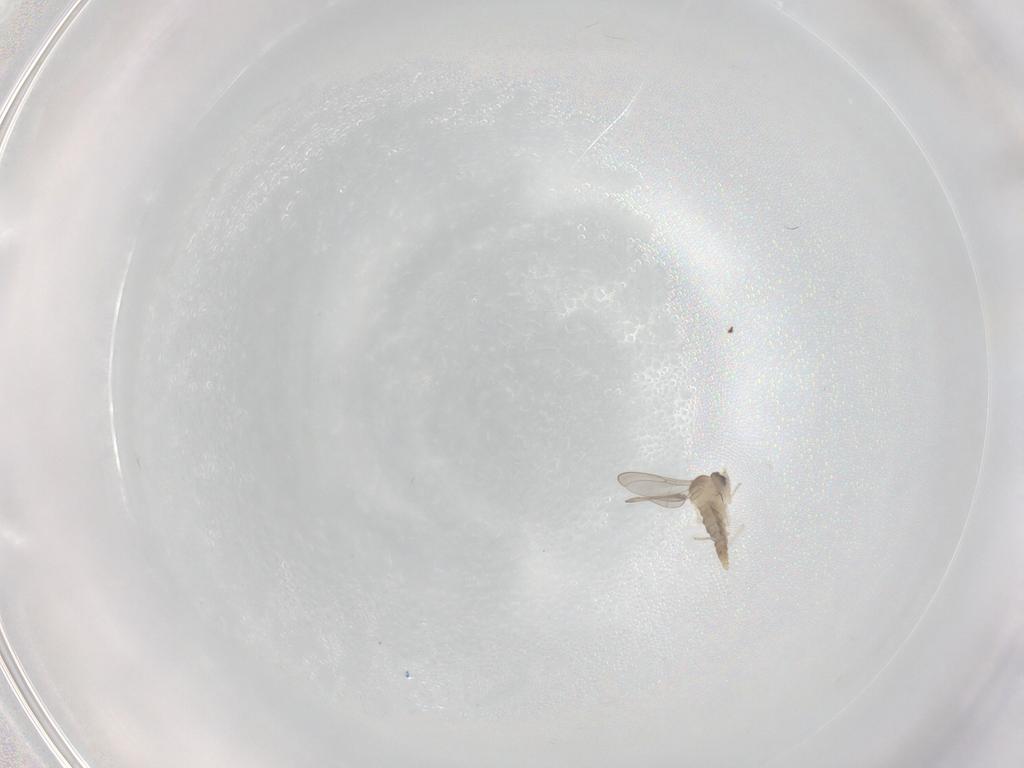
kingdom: Animalia
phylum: Arthropoda
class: Insecta
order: Diptera
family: Cecidomyiidae
